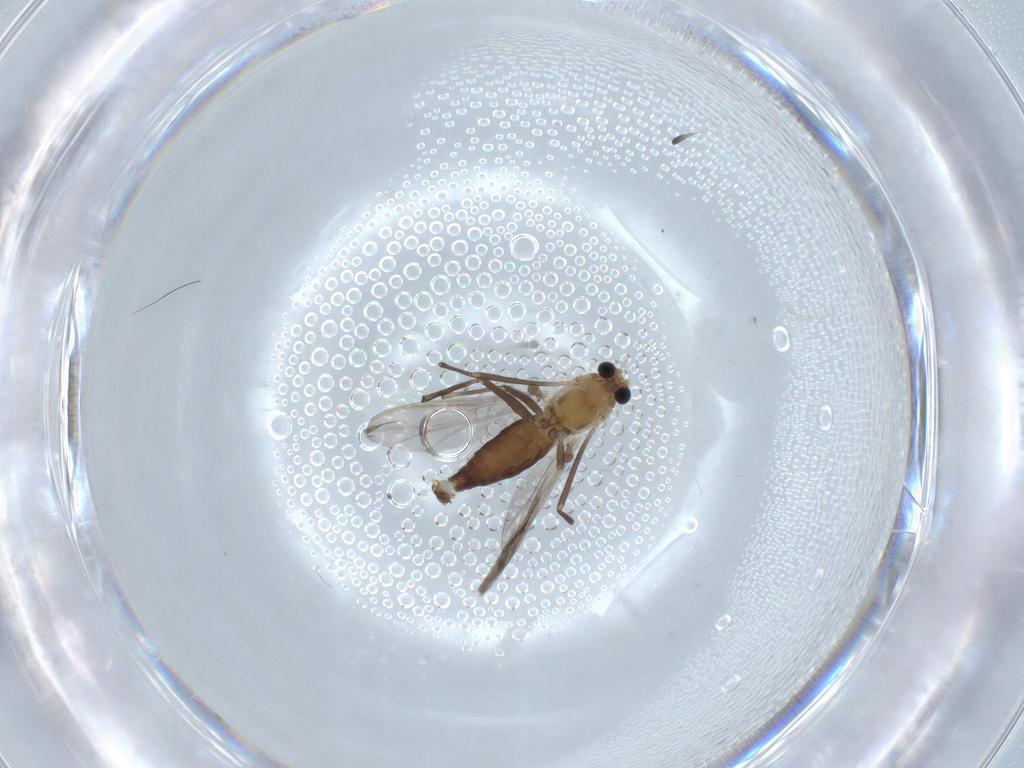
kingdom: Animalia
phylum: Arthropoda
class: Insecta
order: Diptera
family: Chironomidae
